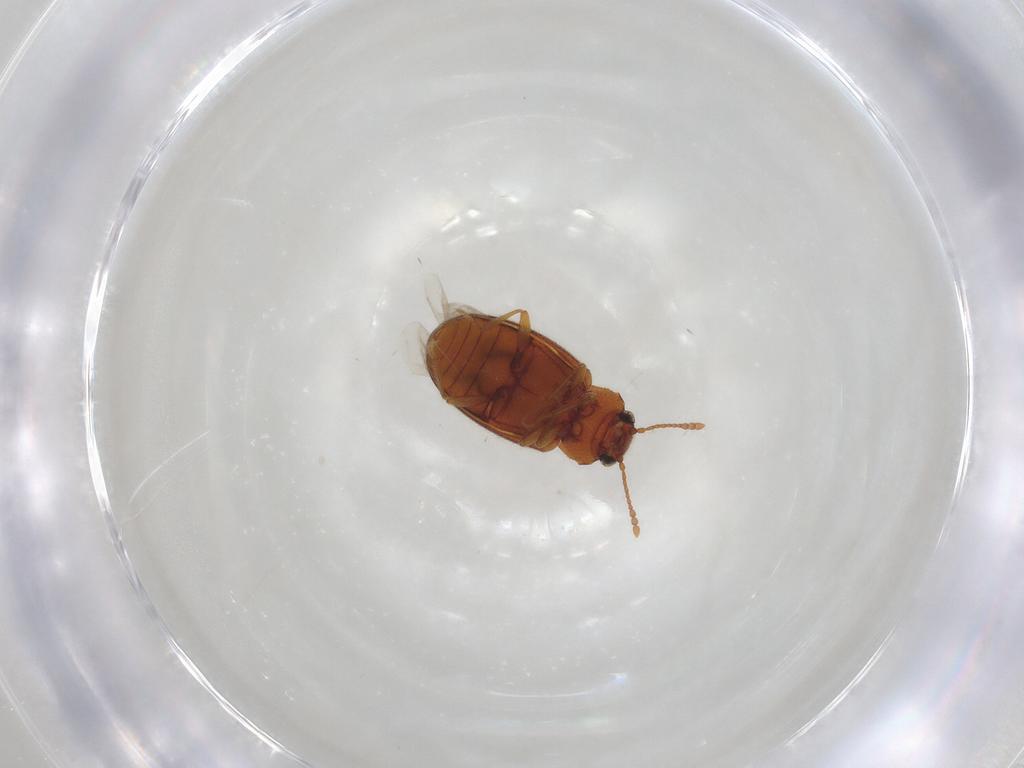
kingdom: Animalia
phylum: Arthropoda
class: Insecta
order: Coleoptera
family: Cryptophagidae
